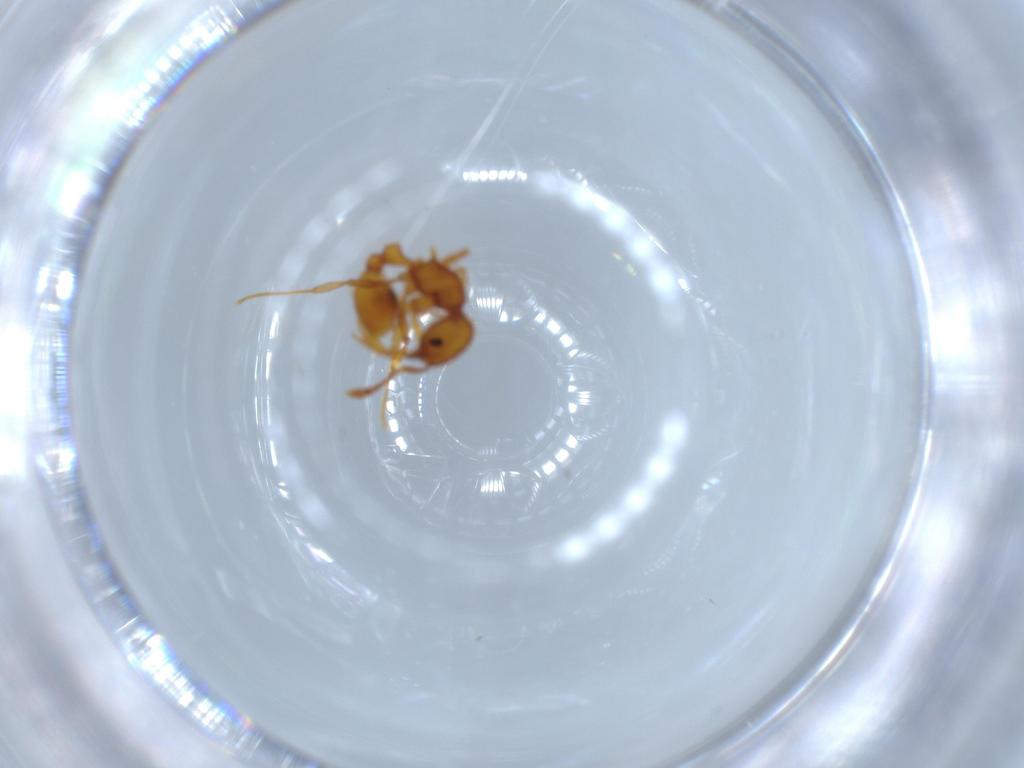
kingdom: Animalia
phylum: Arthropoda
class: Insecta
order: Hymenoptera
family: Formicidae
